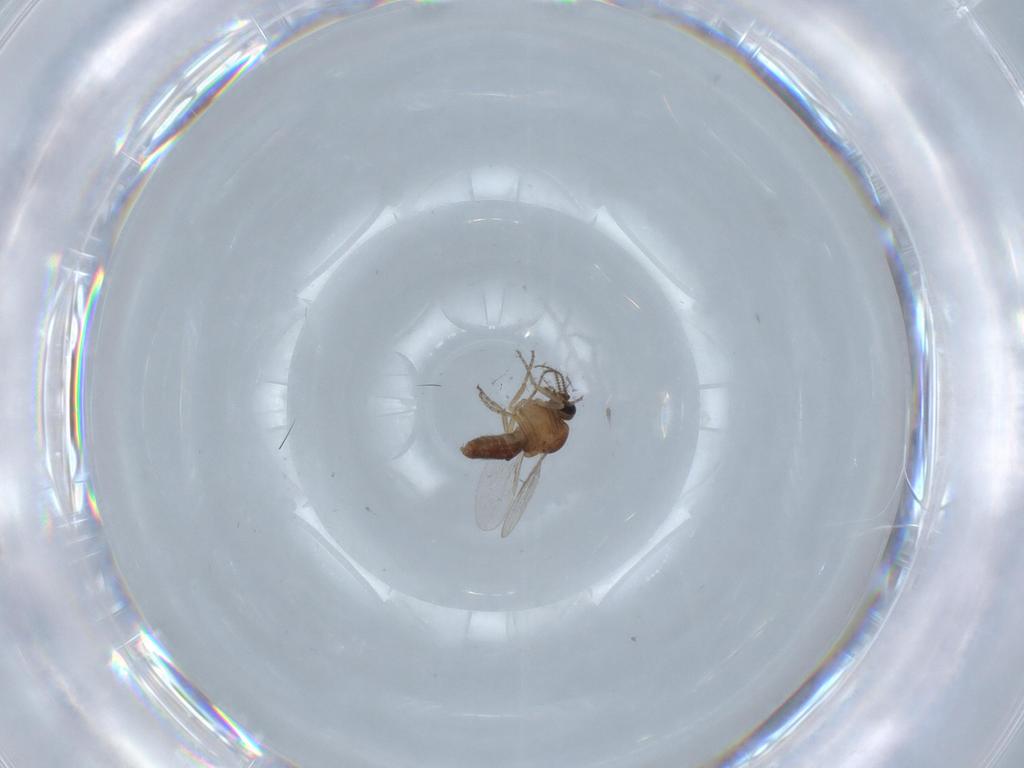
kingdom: Animalia
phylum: Arthropoda
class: Insecta
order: Diptera
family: Ceratopogonidae
